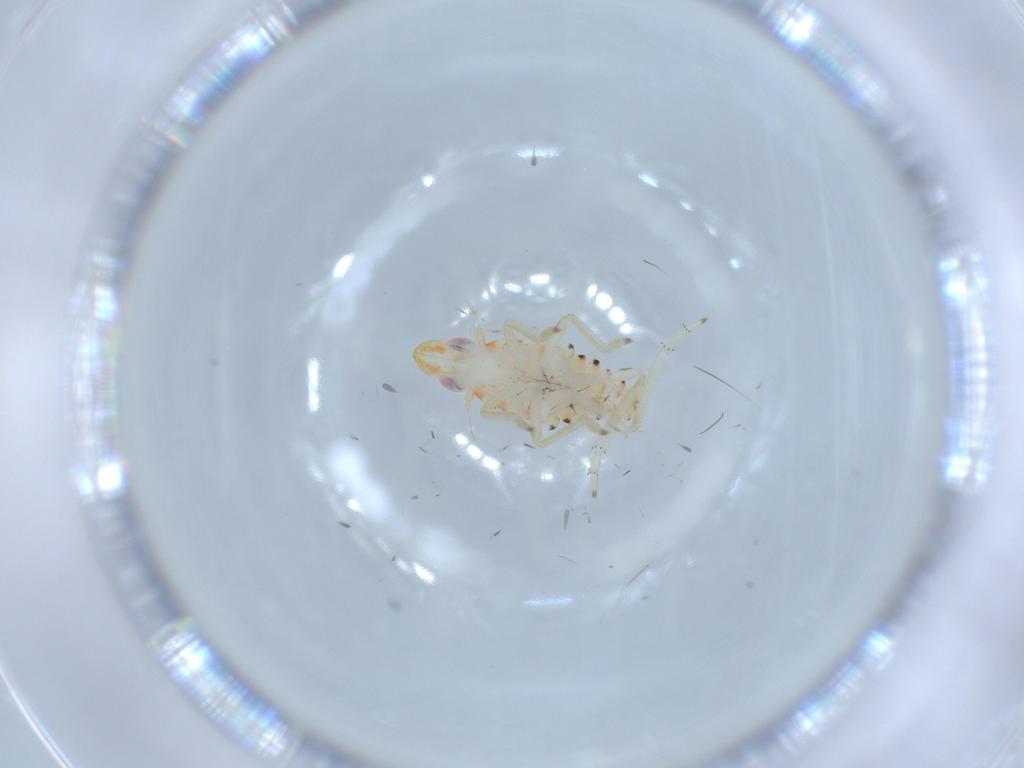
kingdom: Animalia
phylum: Arthropoda
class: Insecta
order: Hemiptera
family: Tropiduchidae
